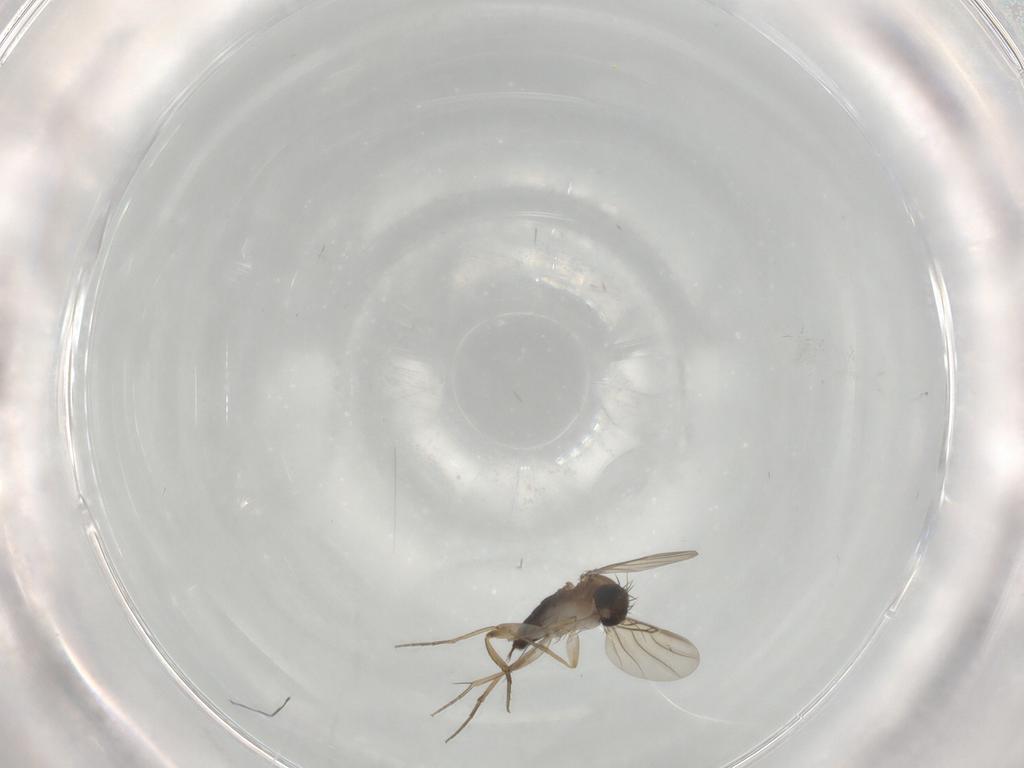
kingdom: Animalia
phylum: Arthropoda
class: Insecta
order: Diptera
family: Phoridae
